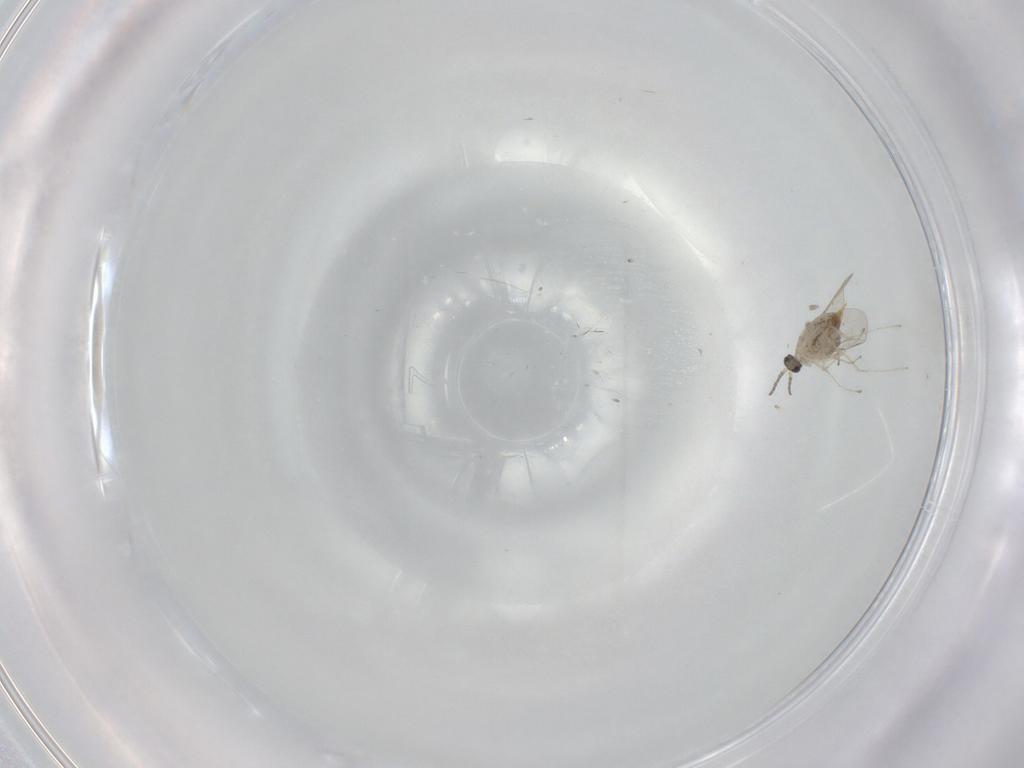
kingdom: Animalia
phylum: Arthropoda
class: Insecta
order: Diptera
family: Cecidomyiidae
